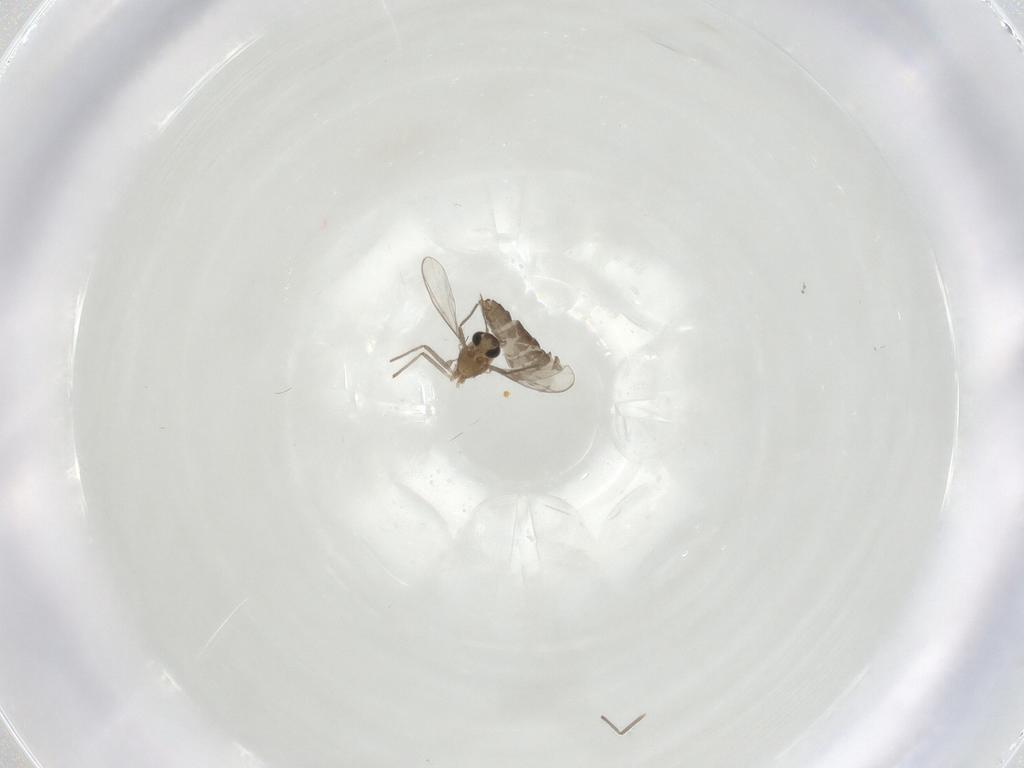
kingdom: Animalia
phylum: Arthropoda
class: Insecta
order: Diptera
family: Chironomidae
